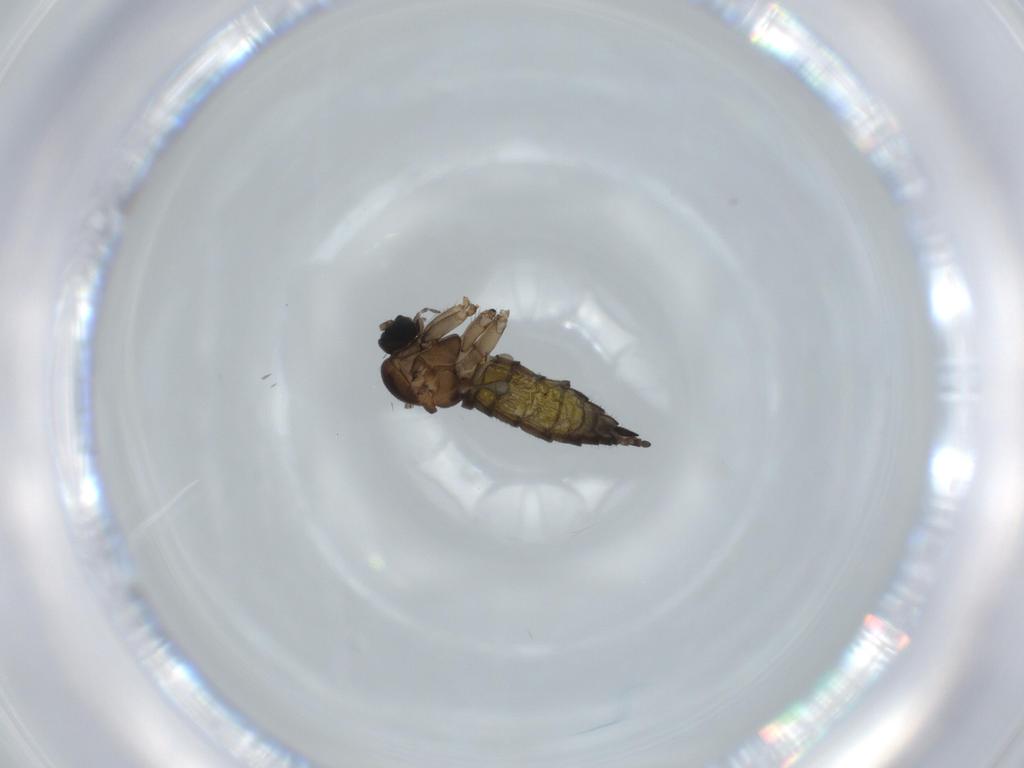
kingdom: Animalia
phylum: Arthropoda
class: Insecta
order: Diptera
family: Sciaridae
